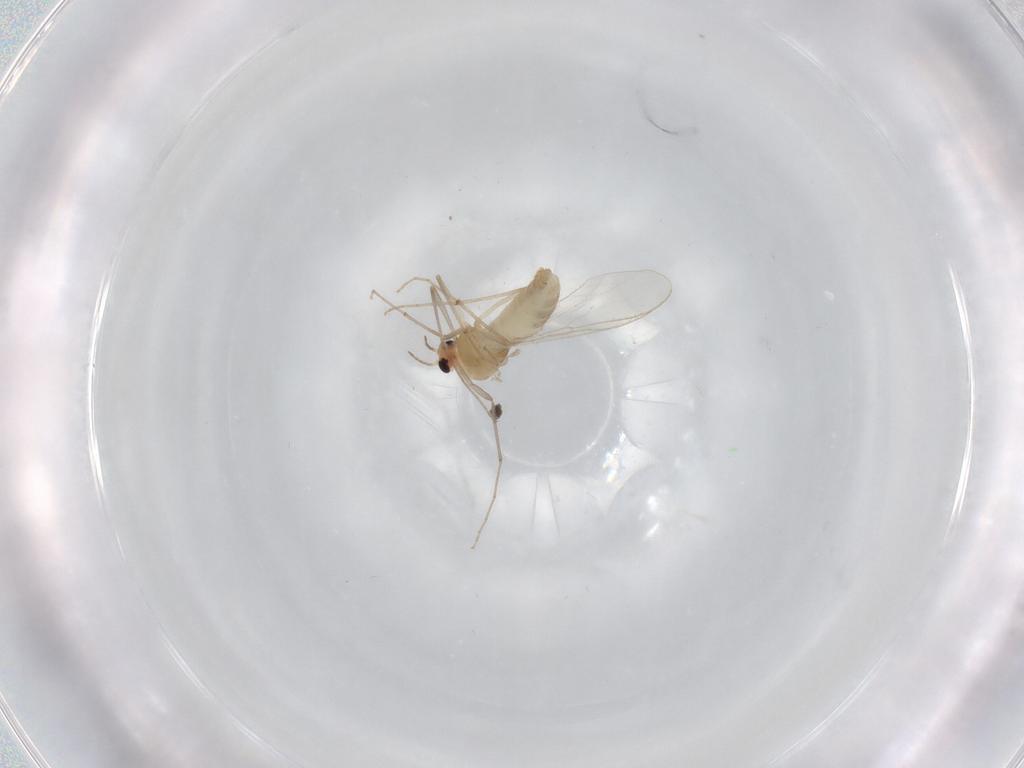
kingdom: Animalia
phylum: Arthropoda
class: Insecta
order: Diptera
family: Chironomidae
